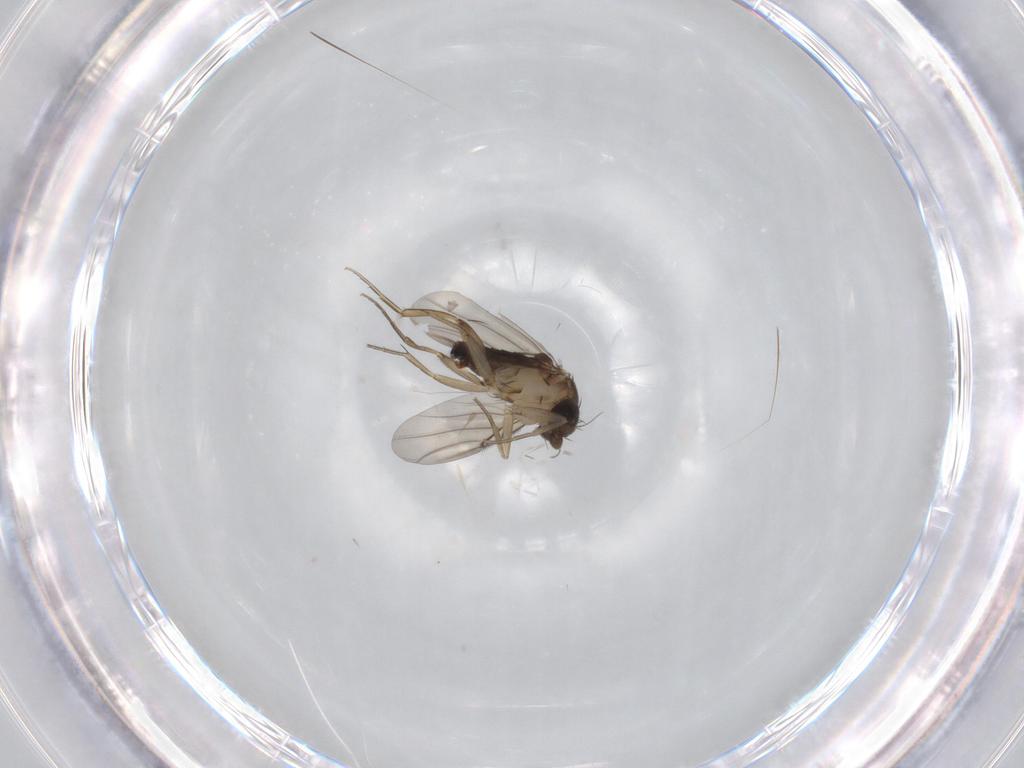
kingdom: Animalia
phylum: Arthropoda
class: Insecta
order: Diptera
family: Phoridae
